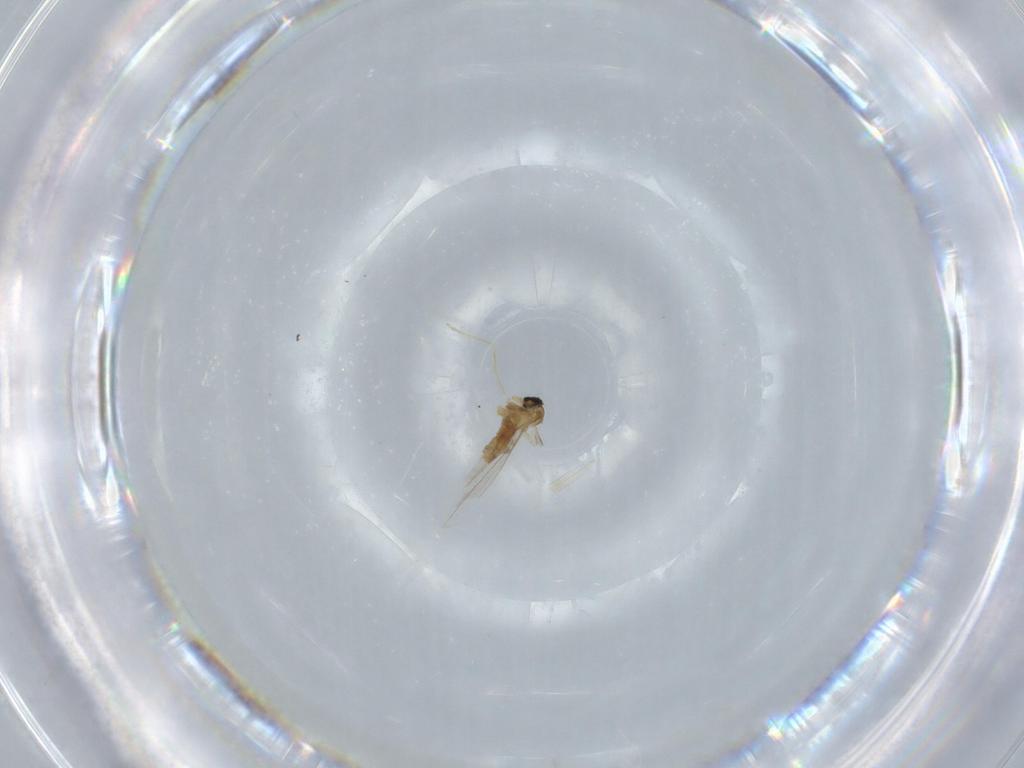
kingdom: Animalia
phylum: Arthropoda
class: Insecta
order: Diptera
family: Cecidomyiidae
